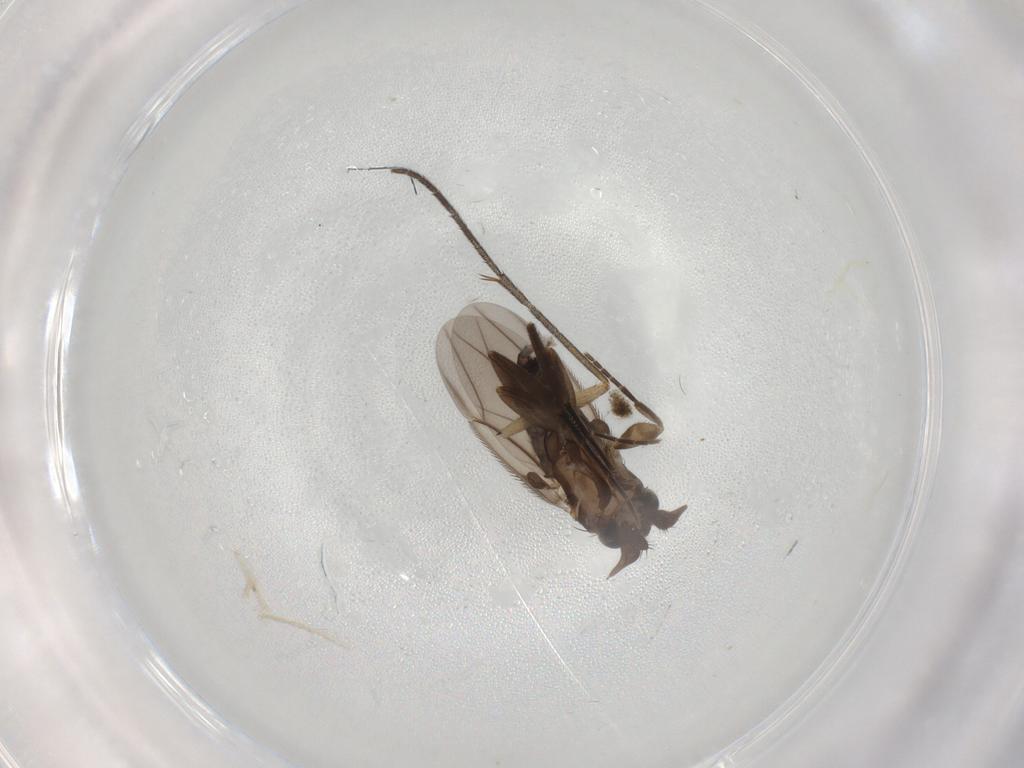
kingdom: Animalia
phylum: Arthropoda
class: Insecta
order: Diptera
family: Phoridae
